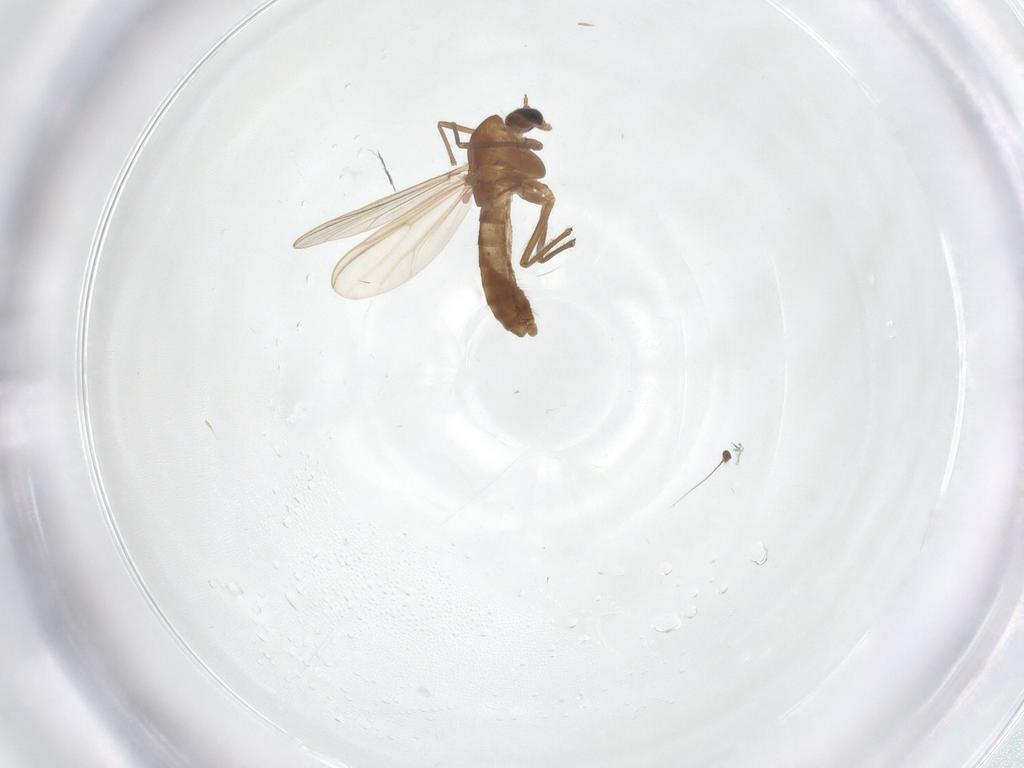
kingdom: Animalia
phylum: Arthropoda
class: Insecta
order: Diptera
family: Chironomidae
